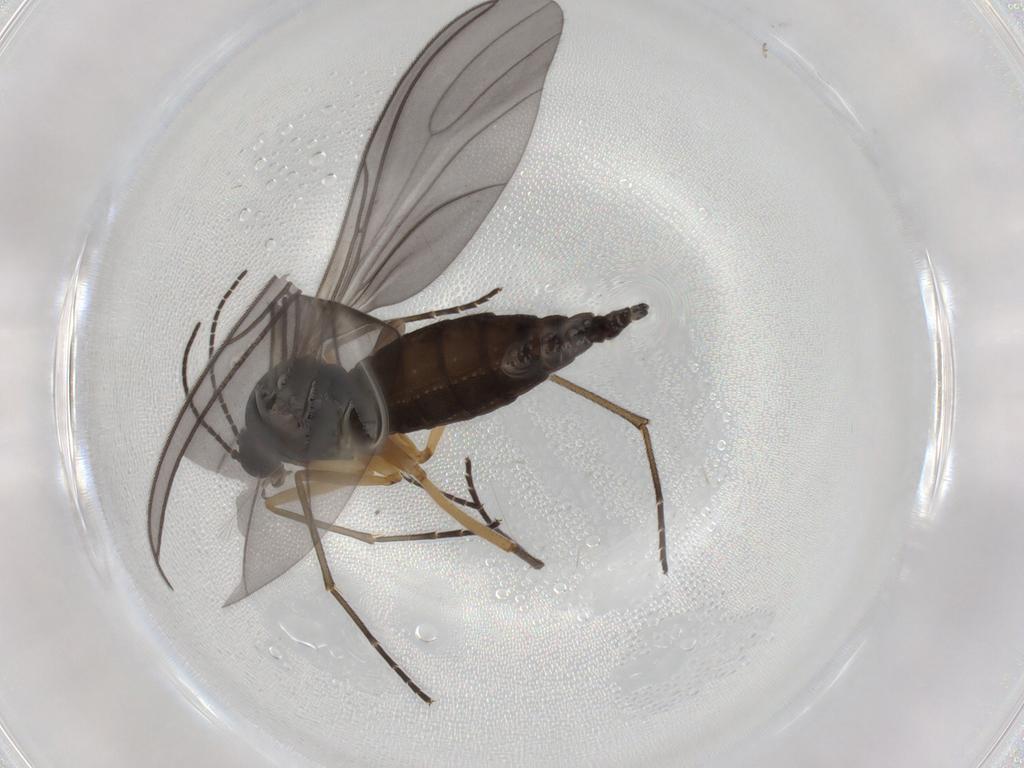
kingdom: Animalia
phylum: Arthropoda
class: Insecta
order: Diptera
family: Sciaridae
